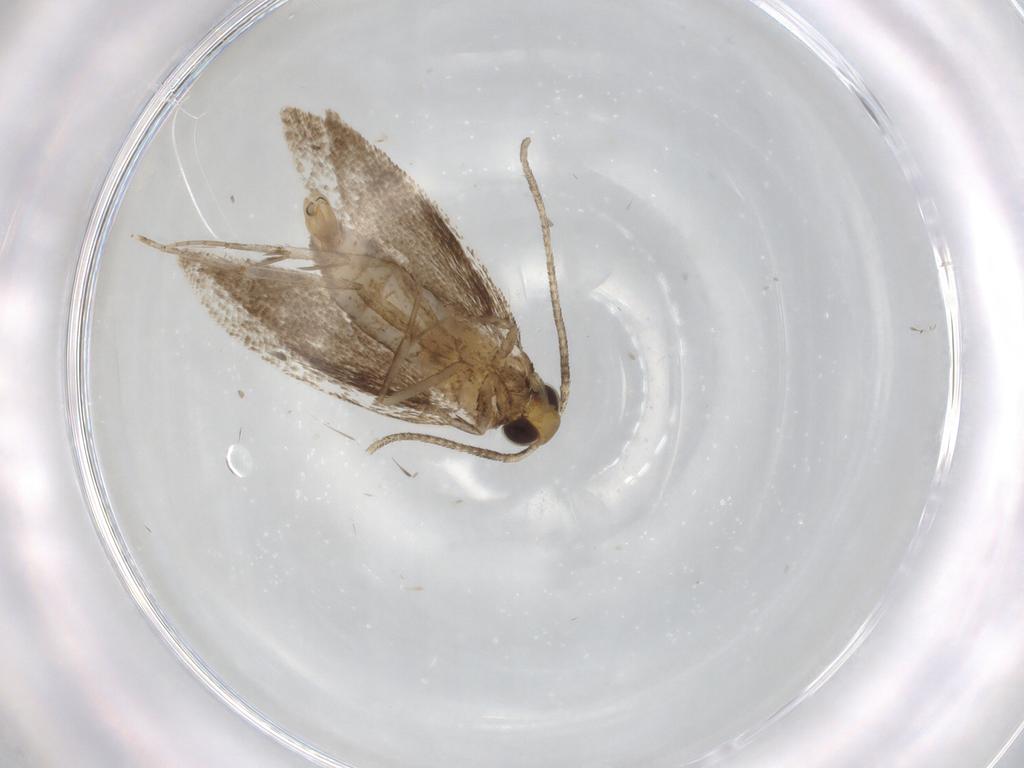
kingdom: Animalia
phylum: Arthropoda
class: Insecta
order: Lepidoptera
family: Gelechiidae
